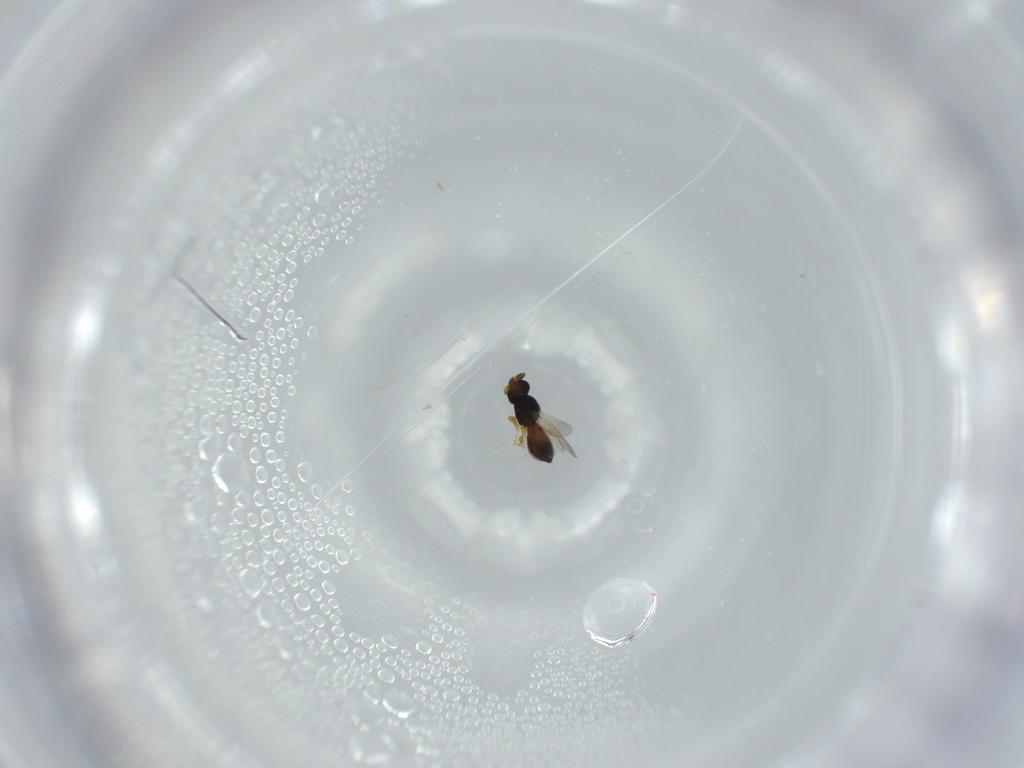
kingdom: Animalia
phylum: Arthropoda
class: Insecta
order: Hymenoptera
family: Platygastridae
